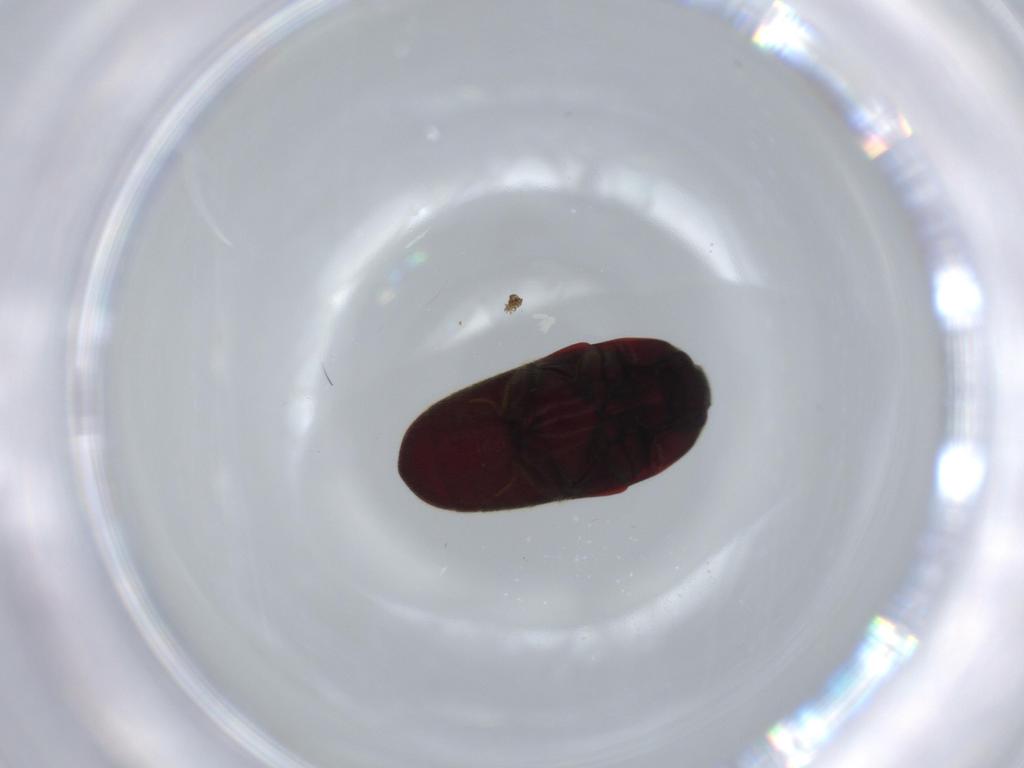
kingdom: Animalia
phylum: Arthropoda
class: Insecta
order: Coleoptera
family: Throscidae
